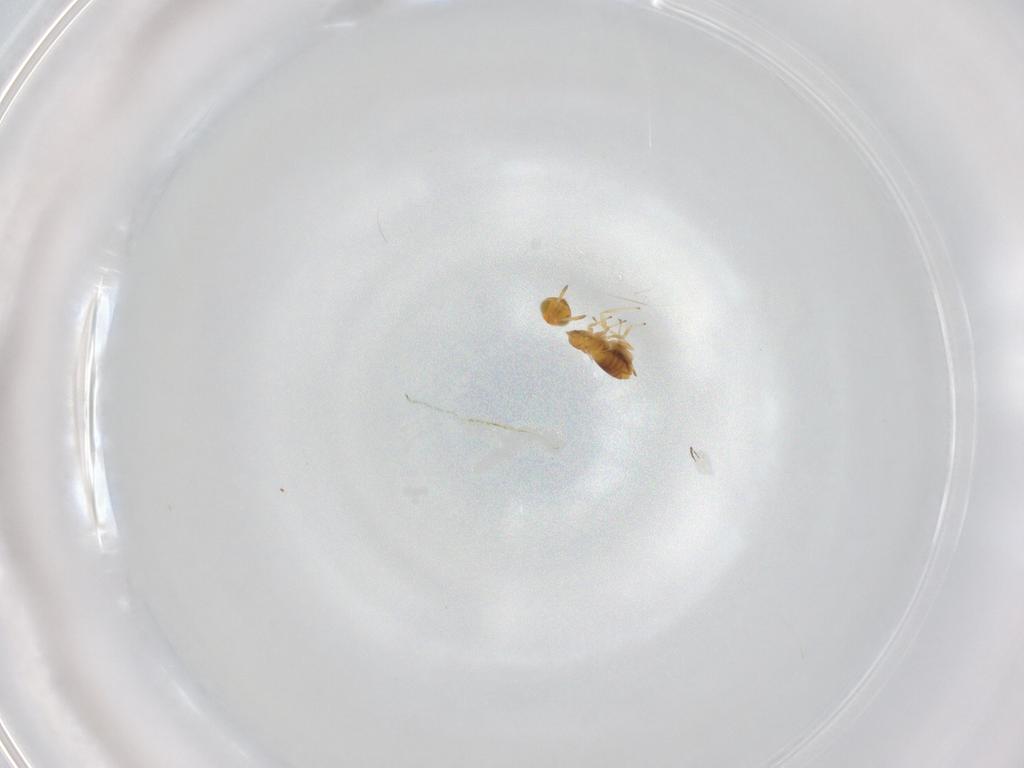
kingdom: Animalia
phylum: Arthropoda
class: Insecta
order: Hymenoptera
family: Aphelinidae
